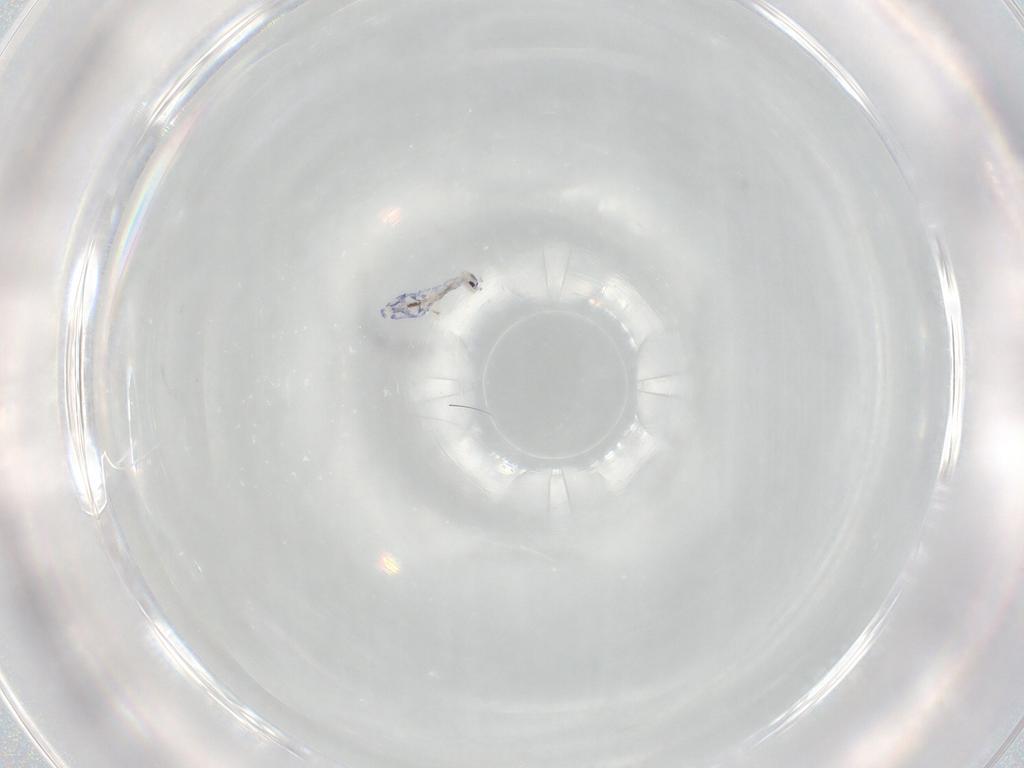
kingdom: Animalia
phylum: Arthropoda
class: Collembola
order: Entomobryomorpha
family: Entomobryidae
